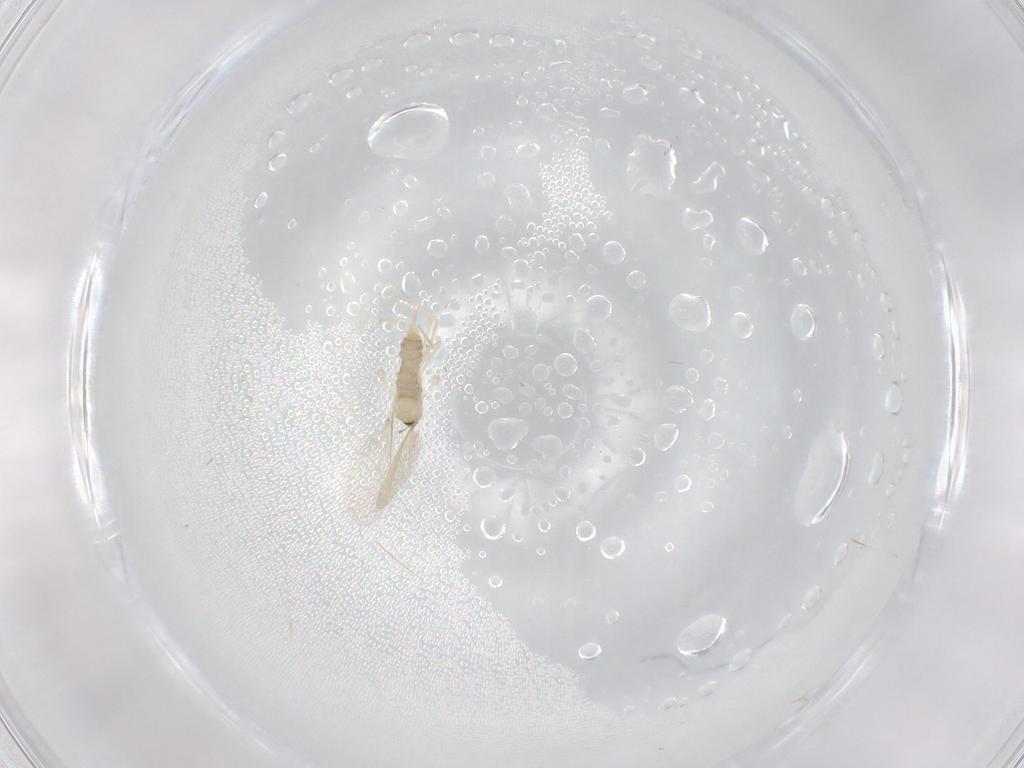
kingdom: Animalia
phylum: Arthropoda
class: Insecta
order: Diptera
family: Cecidomyiidae
